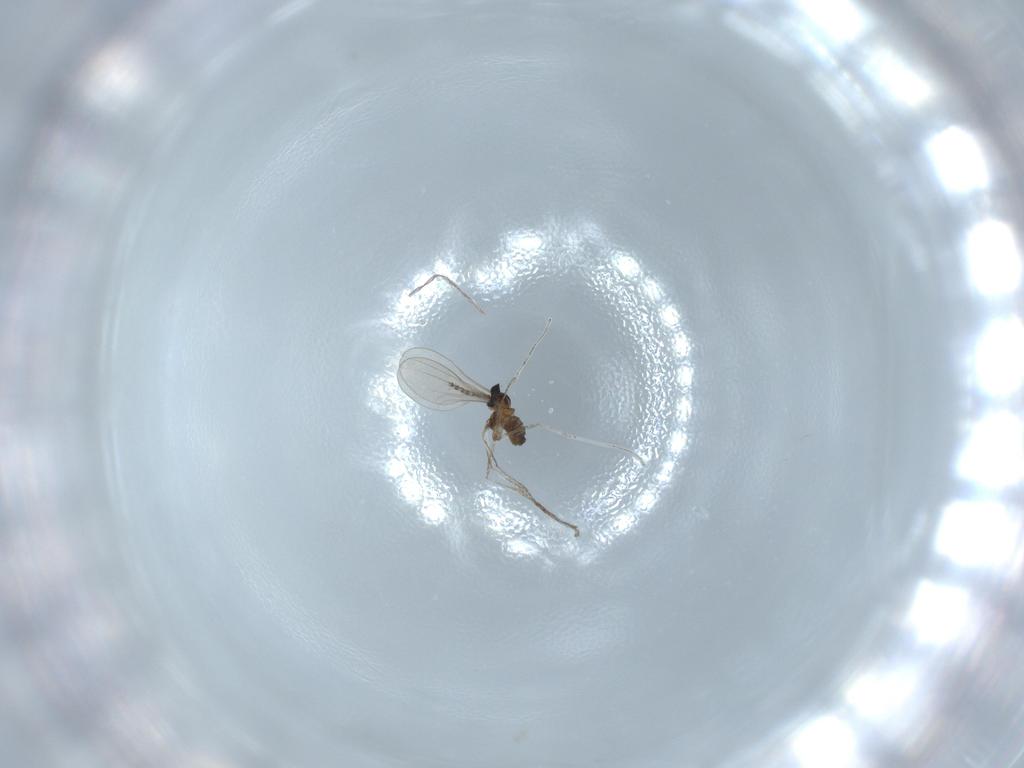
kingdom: Animalia
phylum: Arthropoda
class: Insecta
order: Diptera
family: Cecidomyiidae
